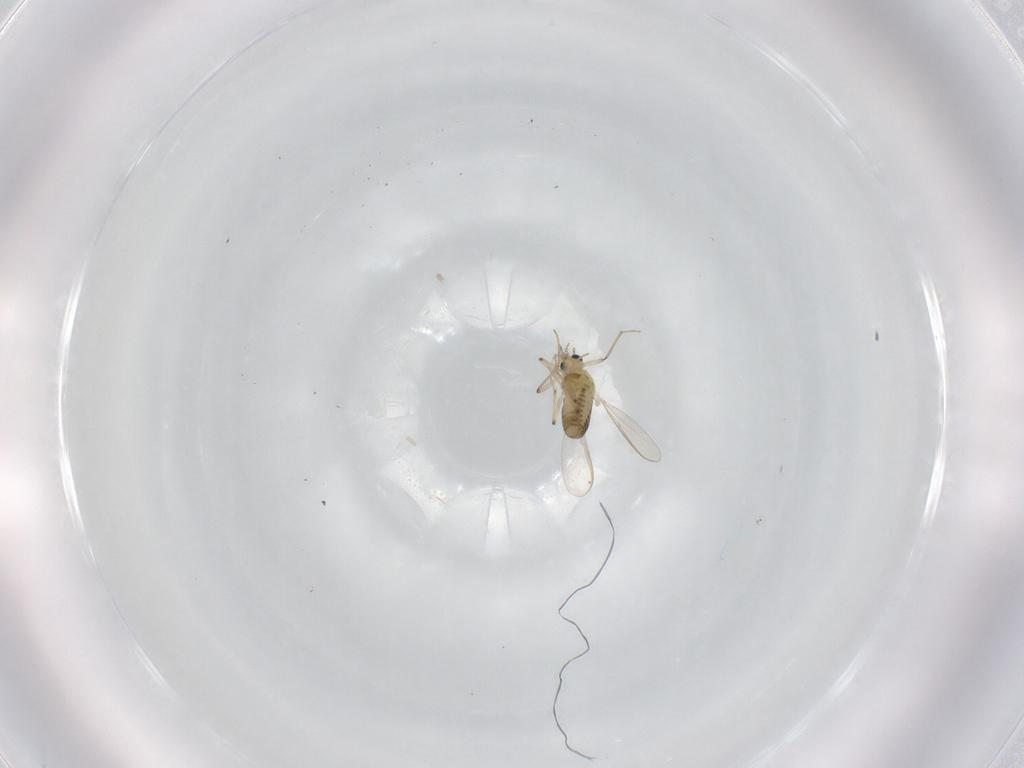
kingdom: Animalia
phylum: Arthropoda
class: Insecta
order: Diptera
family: Chironomidae
